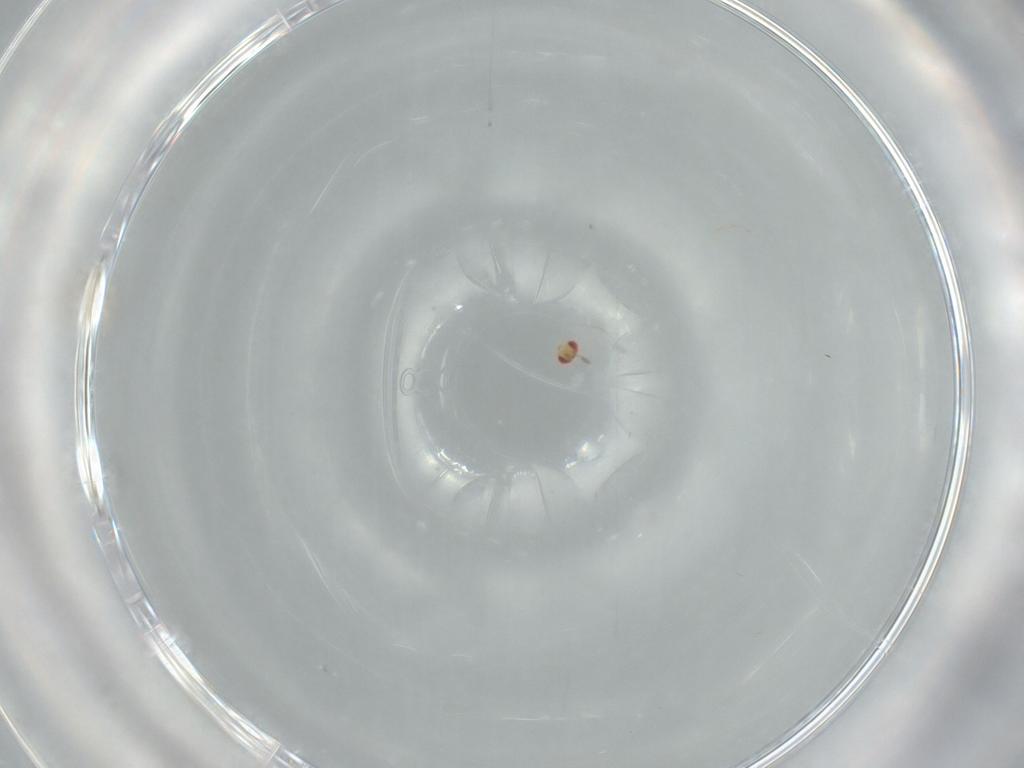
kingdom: Animalia
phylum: Arthropoda
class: Insecta
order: Hymenoptera
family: Trichogrammatidae
